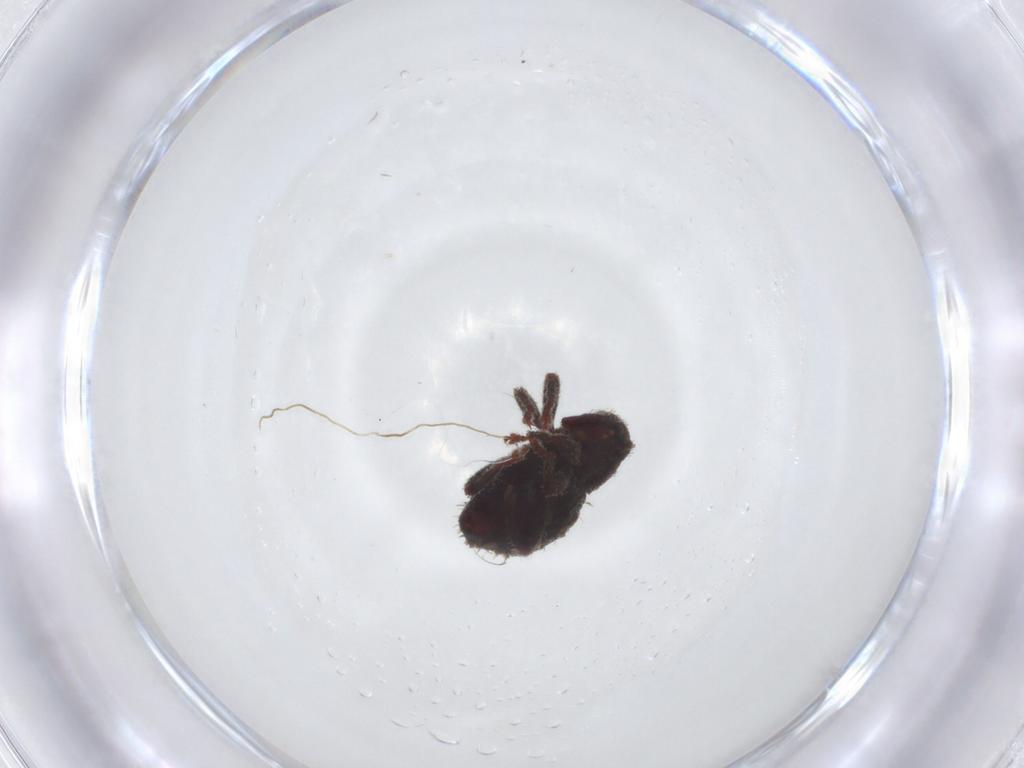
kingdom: Animalia
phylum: Arthropoda
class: Insecta
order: Coleoptera
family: Curculionidae
